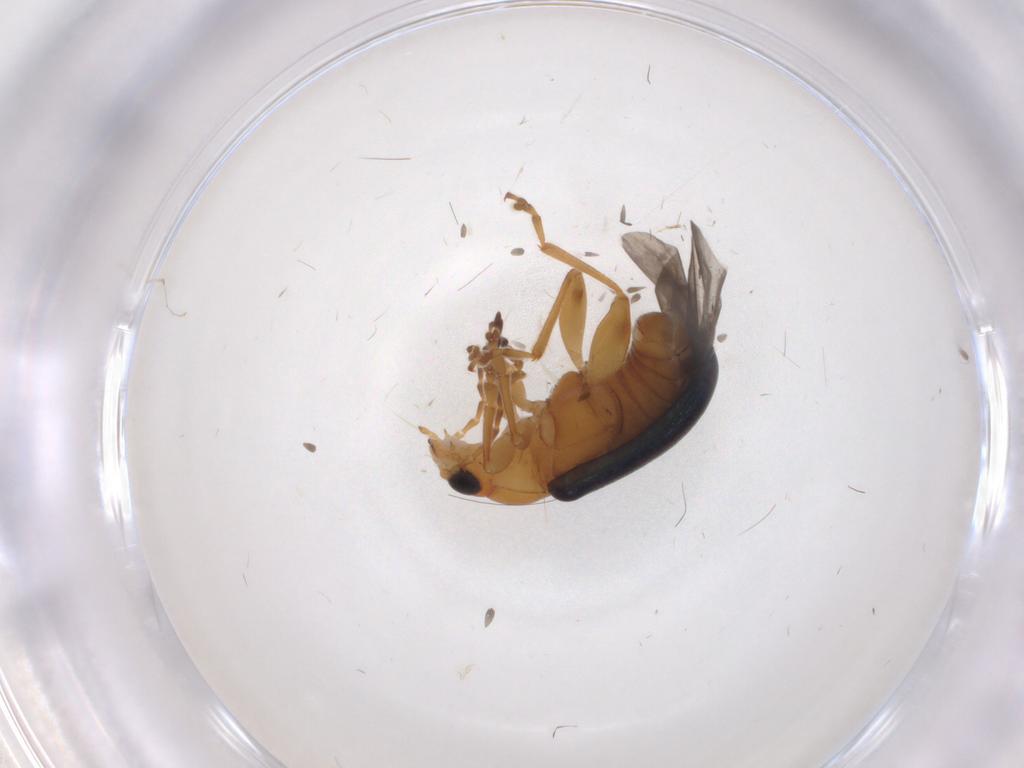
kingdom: Animalia
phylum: Arthropoda
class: Insecta
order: Coleoptera
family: Chrysomelidae
